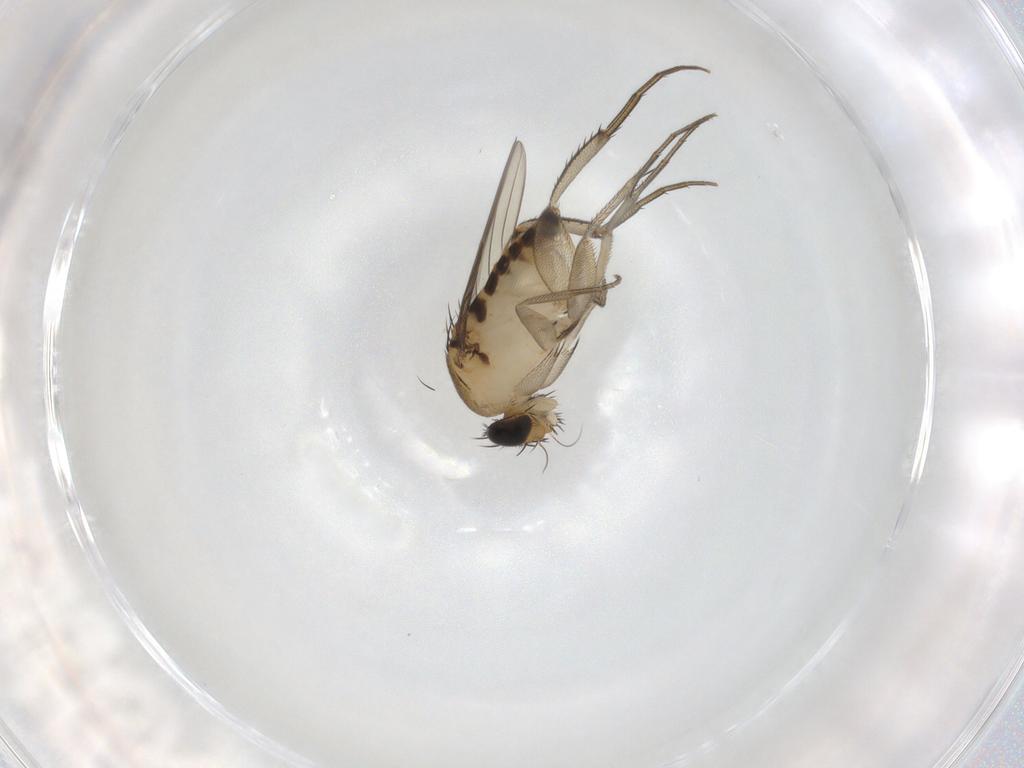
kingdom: Animalia
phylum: Arthropoda
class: Insecta
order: Diptera
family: Phoridae
